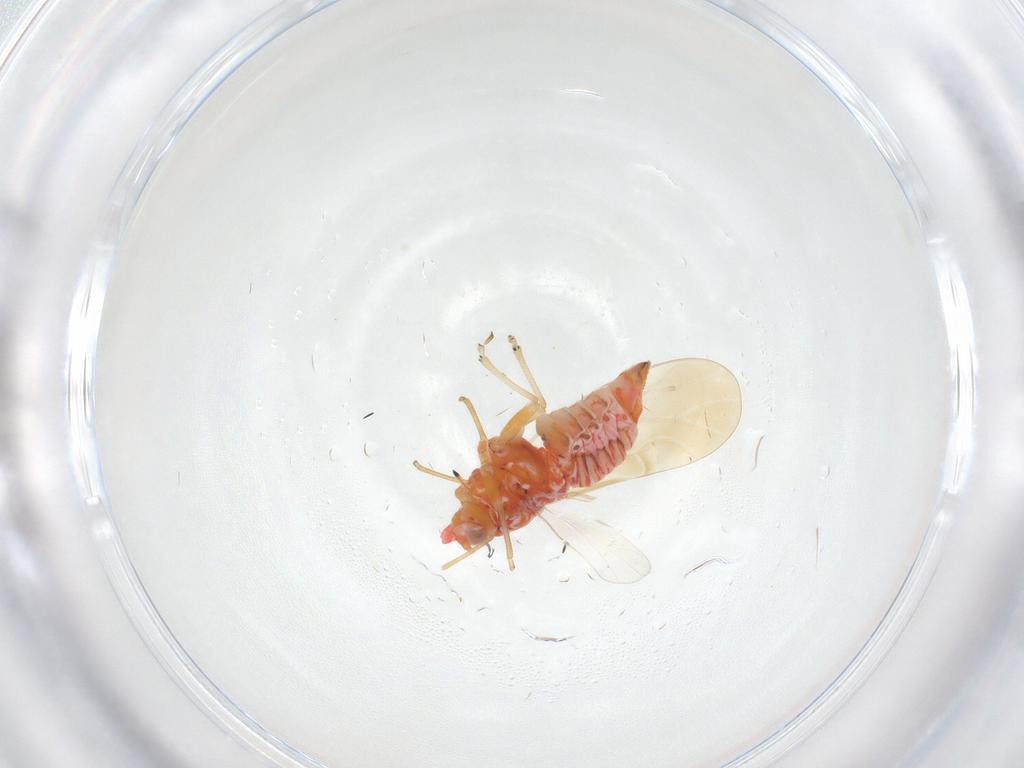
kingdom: Animalia
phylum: Arthropoda
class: Insecta
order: Hemiptera
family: Psyllidae
